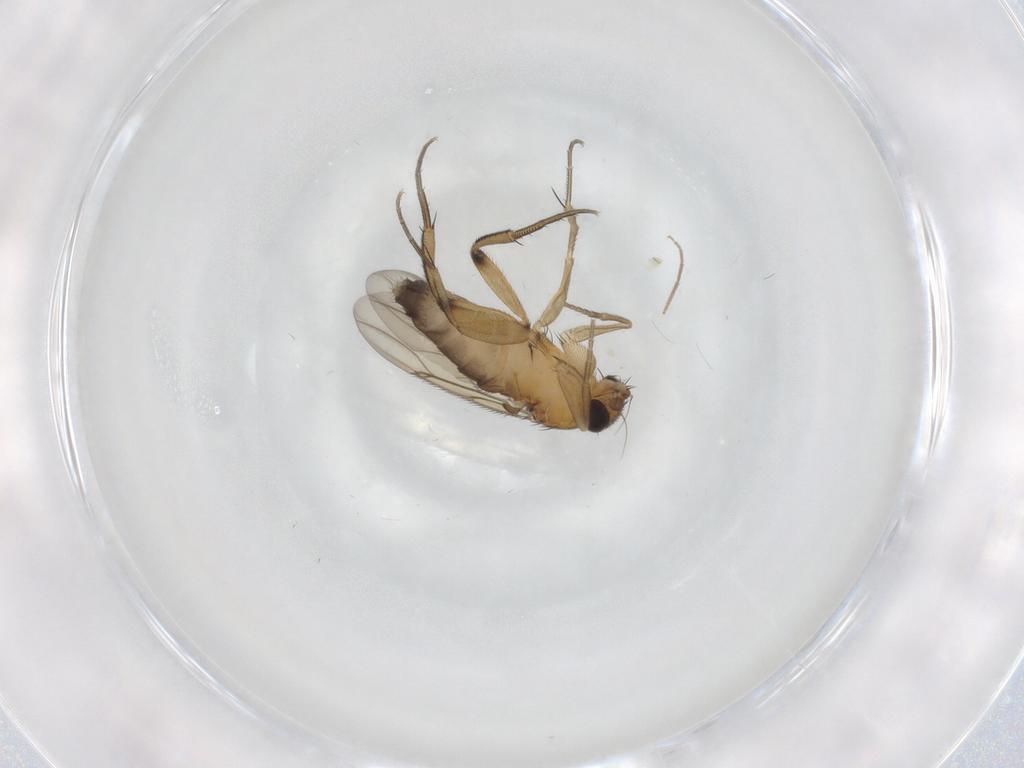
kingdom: Animalia
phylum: Arthropoda
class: Insecta
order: Diptera
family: Phoridae
